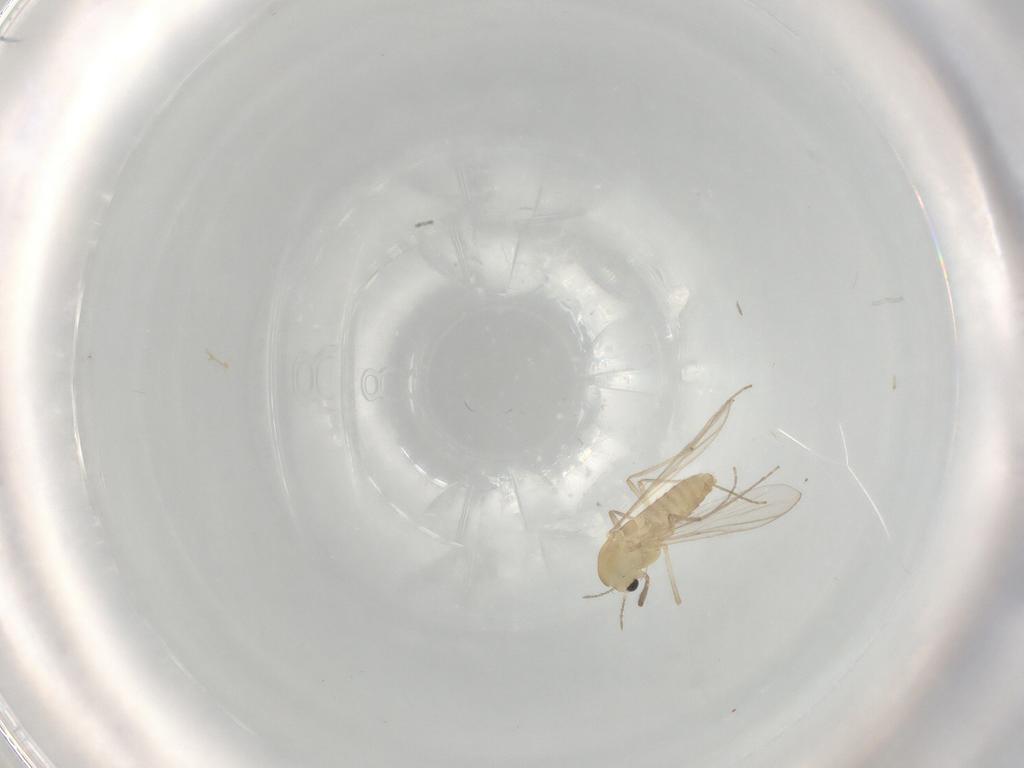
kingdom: Animalia
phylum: Arthropoda
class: Insecta
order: Diptera
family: Chironomidae
